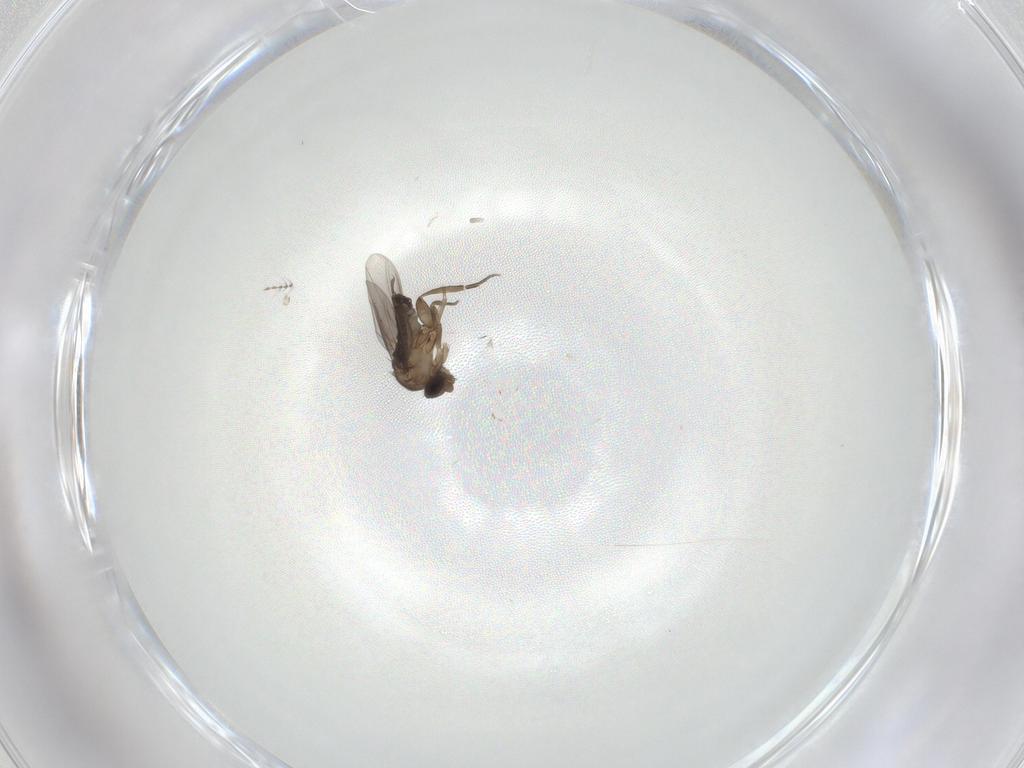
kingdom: Animalia
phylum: Arthropoda
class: Insecta
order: Diptera
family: Phoridae
